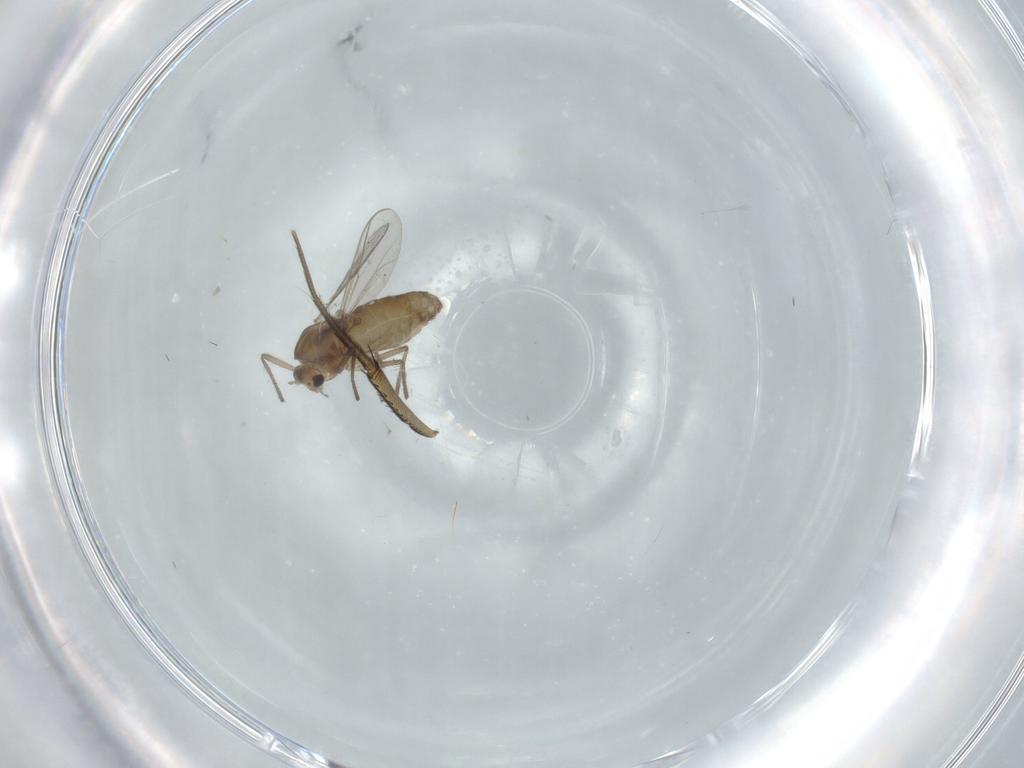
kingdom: Animalia
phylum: Arthropoda
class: Insecta
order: Diptera
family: Chironomidae
